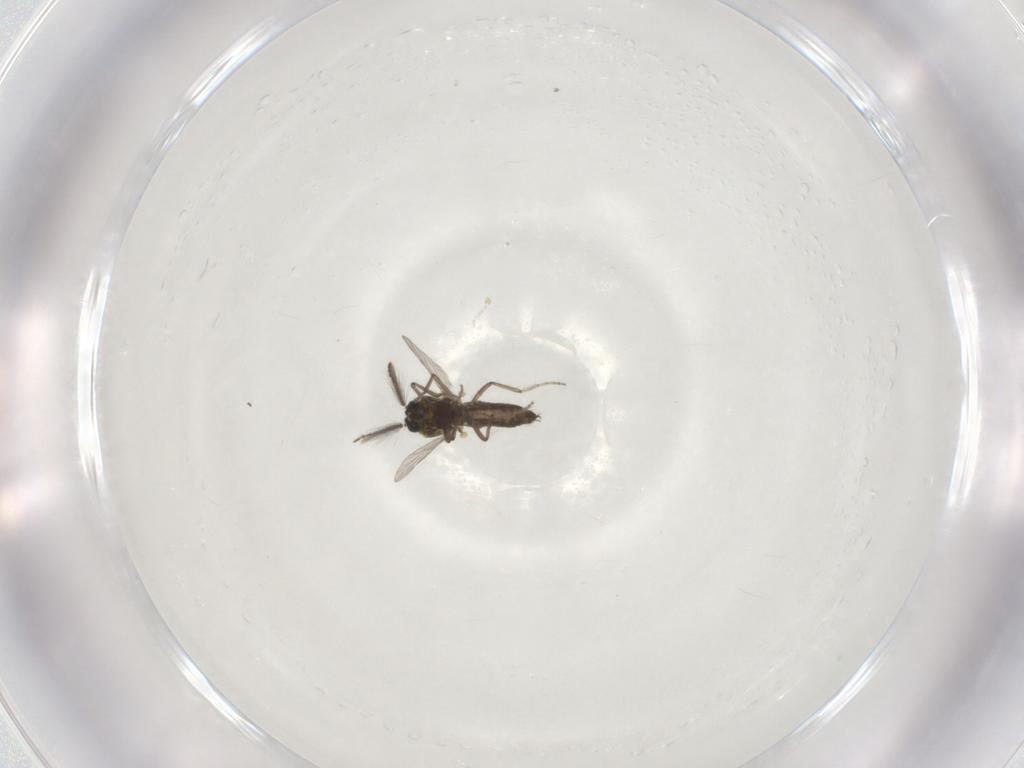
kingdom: Animalia
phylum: Arthropoda
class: Insecta
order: Diptera
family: Ceratopogonidae
